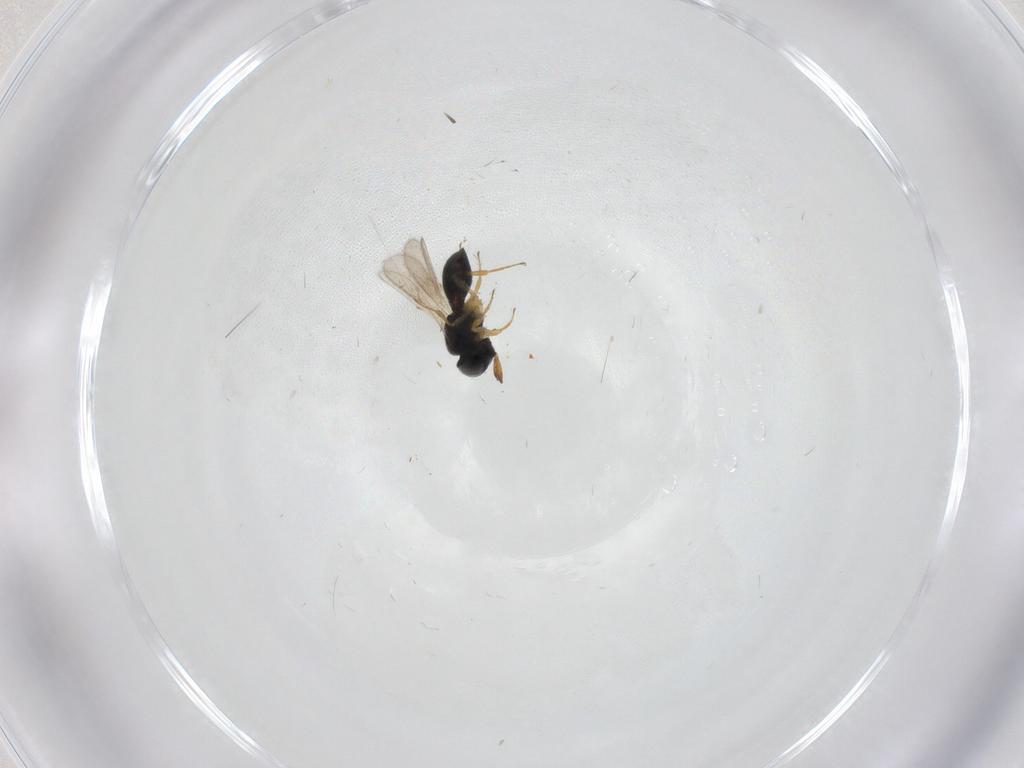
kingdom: Animalia
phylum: Arthropoda
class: Insecta
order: Hymenoptera
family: Scelionidae
